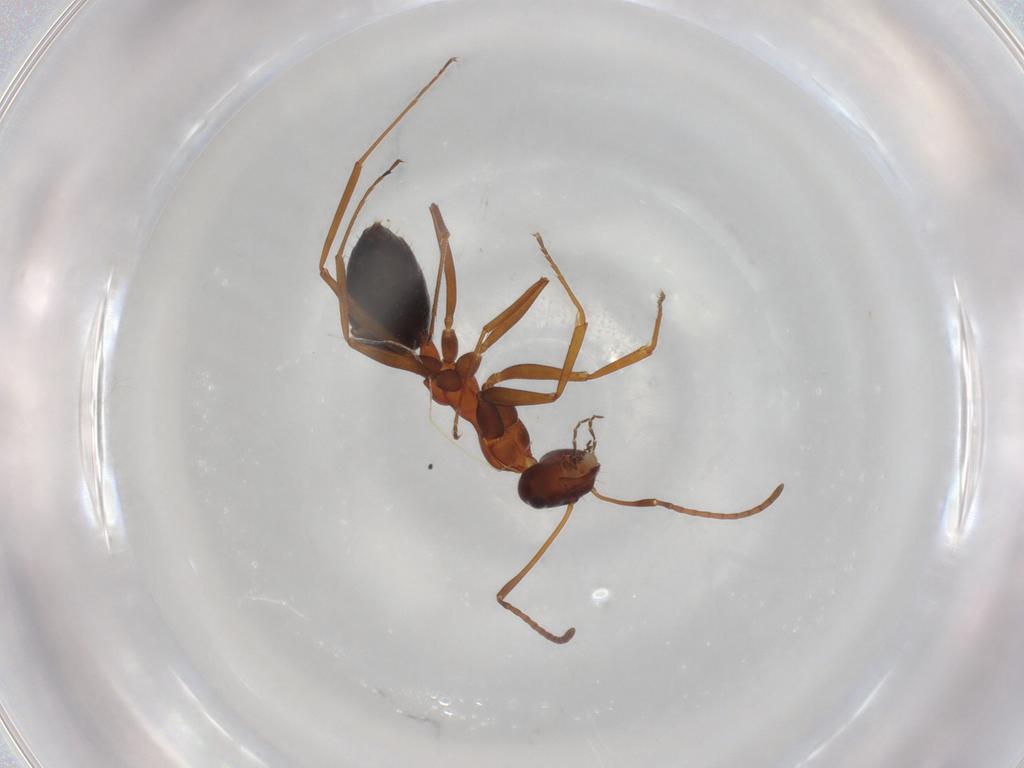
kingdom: Animalia
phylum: Arthropoda
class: Insecta
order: Hymenoptera
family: Formicidae
